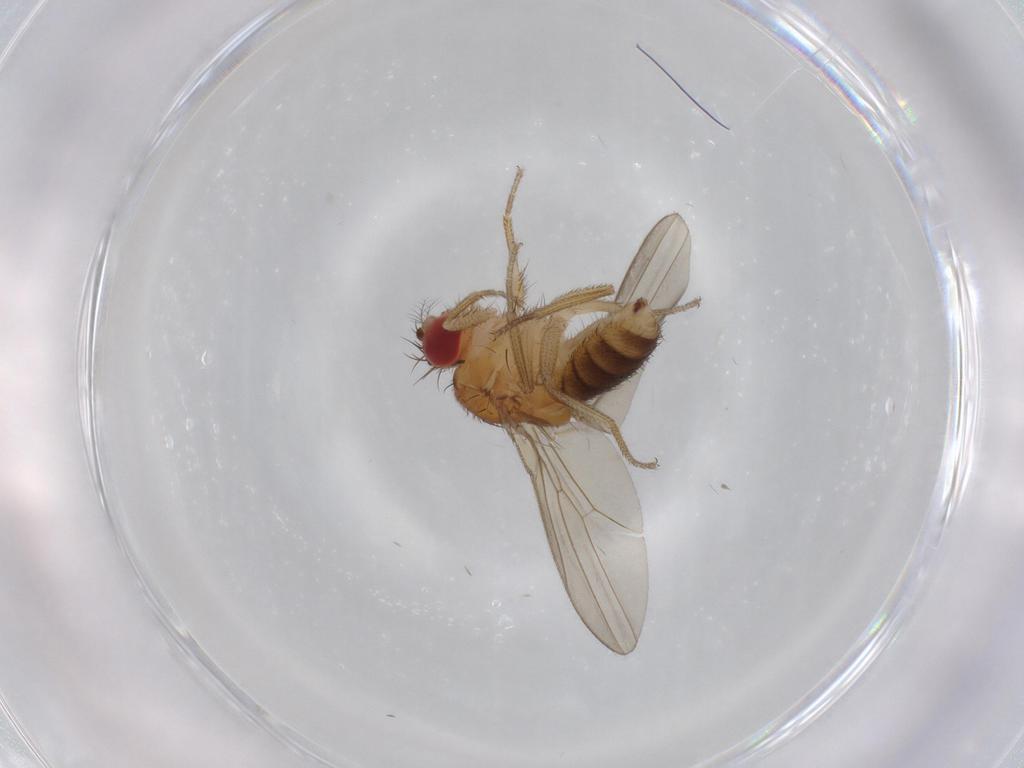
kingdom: Animalia
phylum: Arthropoda
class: Insecta
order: Diptera
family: Drosophilidae
